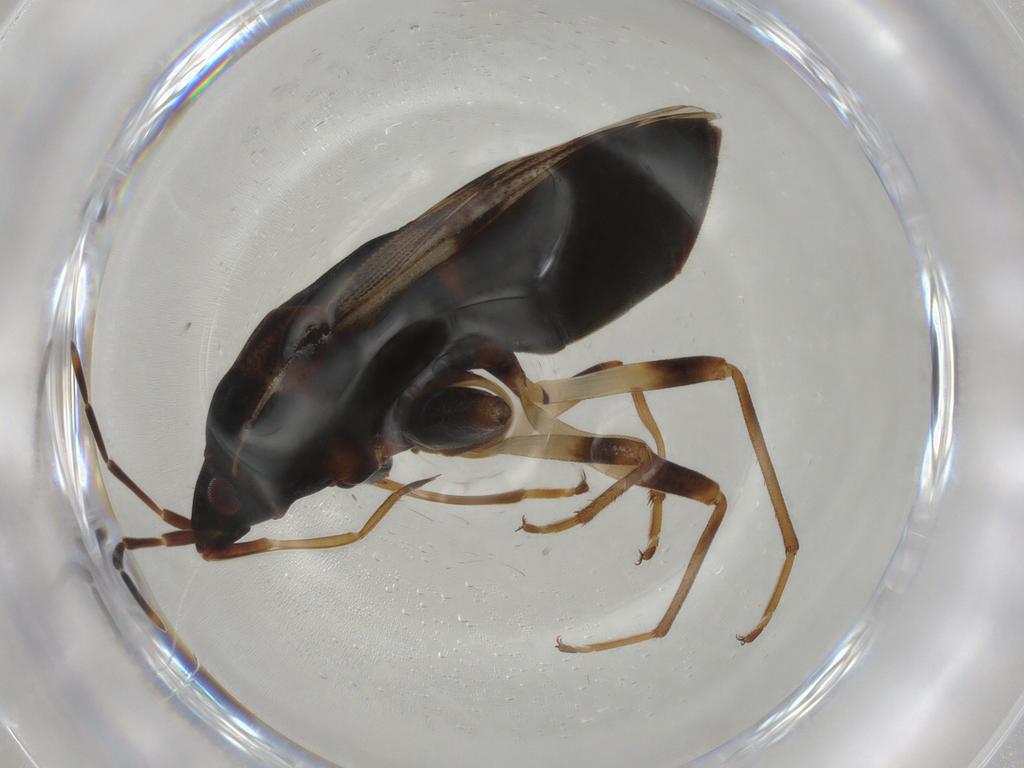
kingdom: Animalia
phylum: Arthropoda
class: Insecta
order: Hemiptera
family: Rhyparochromidae
